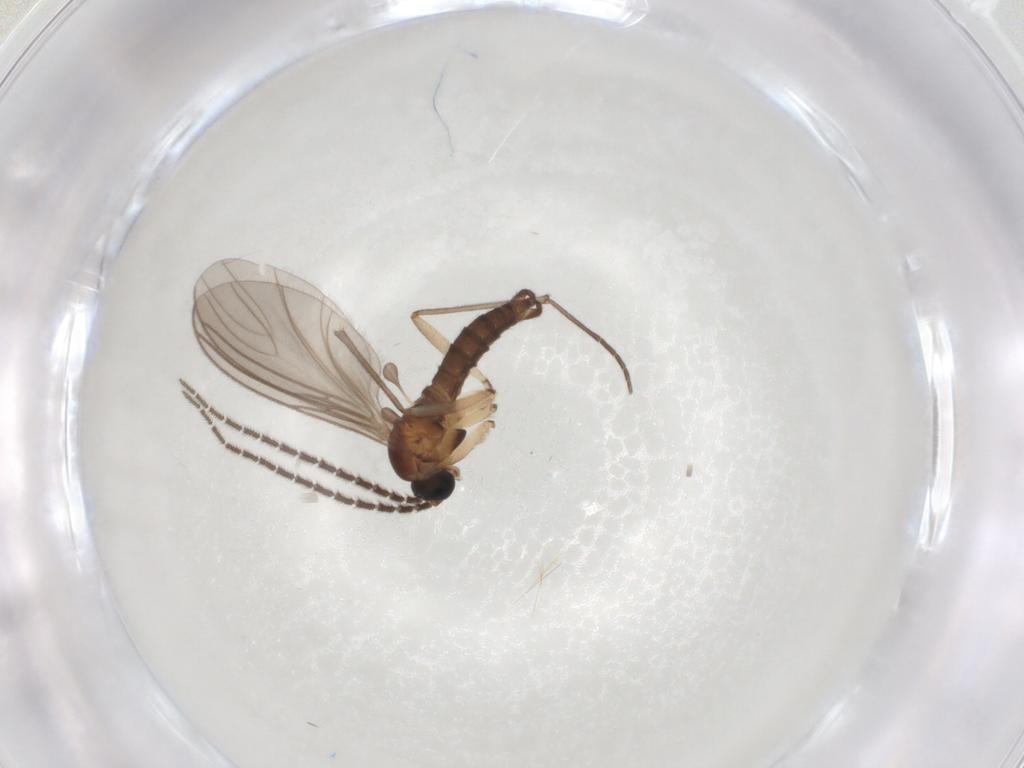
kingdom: Animalia
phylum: Arthropoda
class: Insecta
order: Diptera
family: Sciaridae
